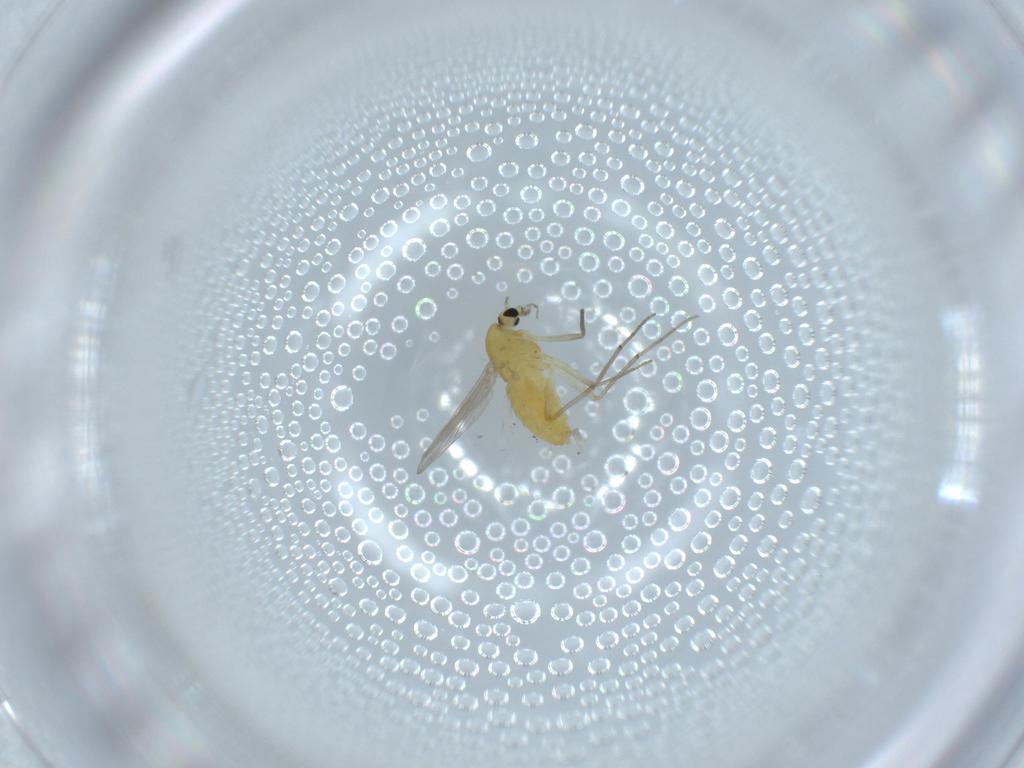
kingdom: Animalia
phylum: Arthropoda
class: Insecta
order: Diptera
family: Chironomidae
